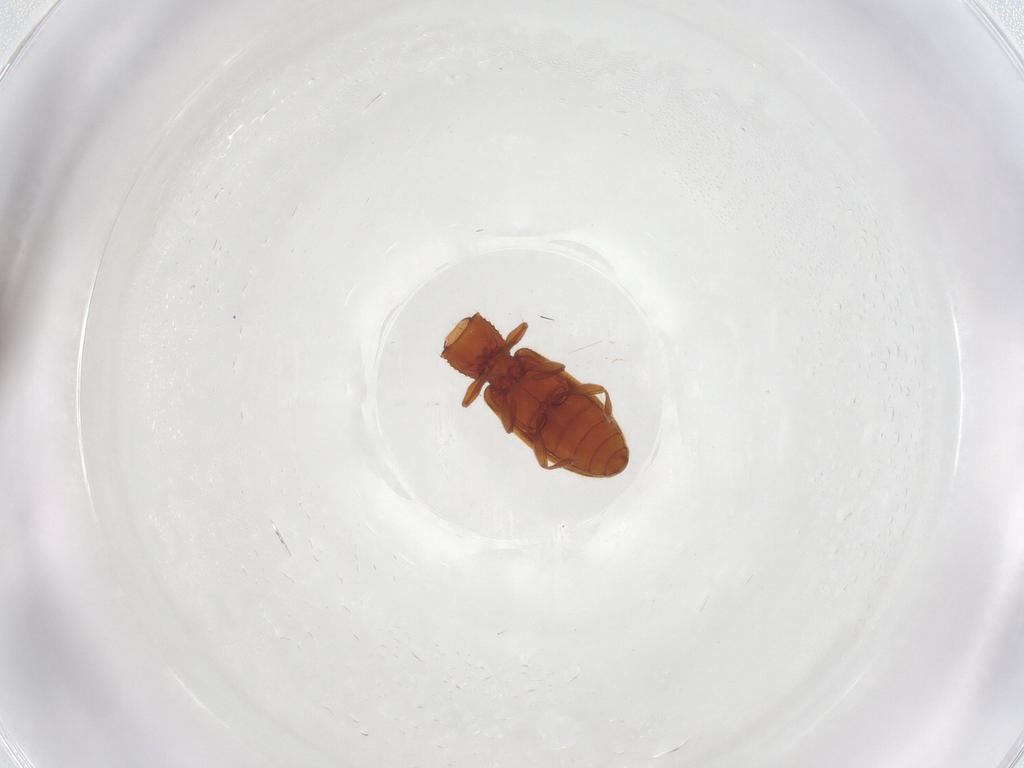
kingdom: Animalia
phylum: Arthropoda
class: Insecta
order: Coleoptera
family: Silvanidae
